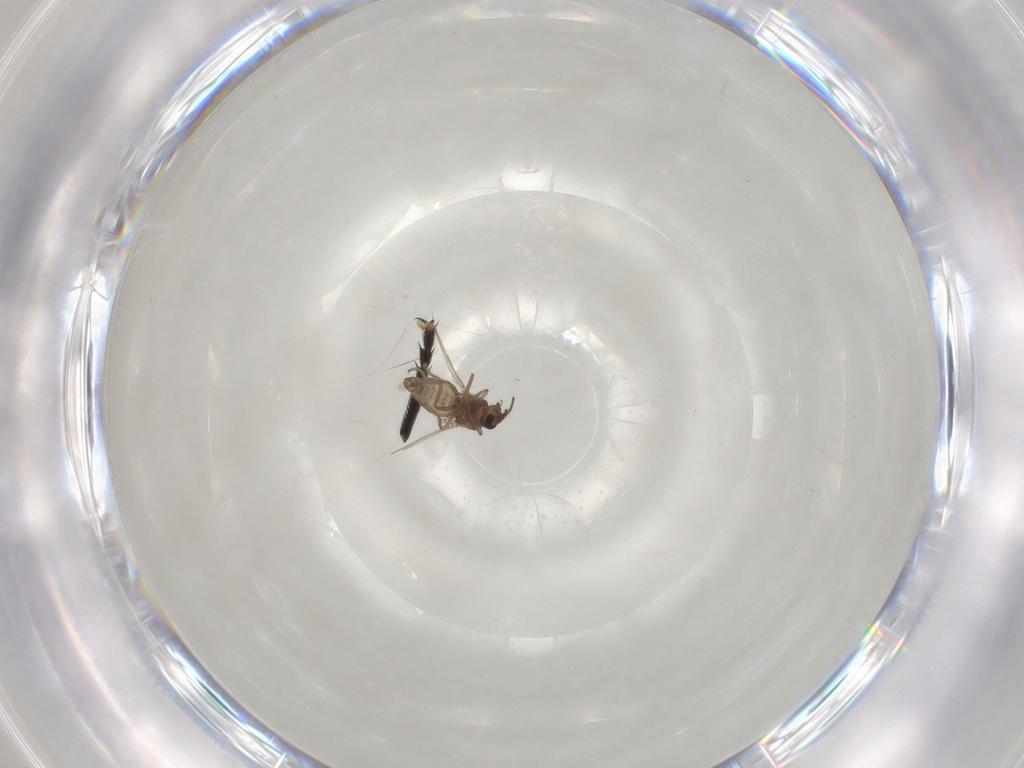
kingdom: Animalia
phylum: Arthropoda
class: Insecta
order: Diptera
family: Ceratopogonidae
